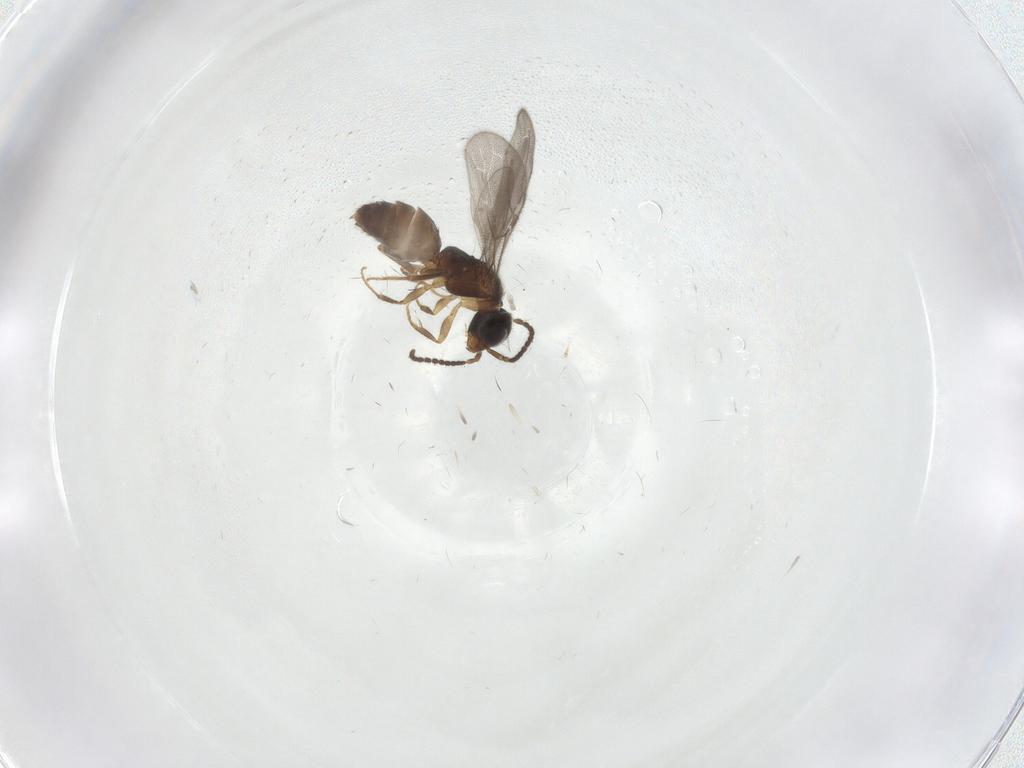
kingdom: Animalia
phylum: Arthropoda
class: Insecta
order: Hymenoptera
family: Bethylidae
